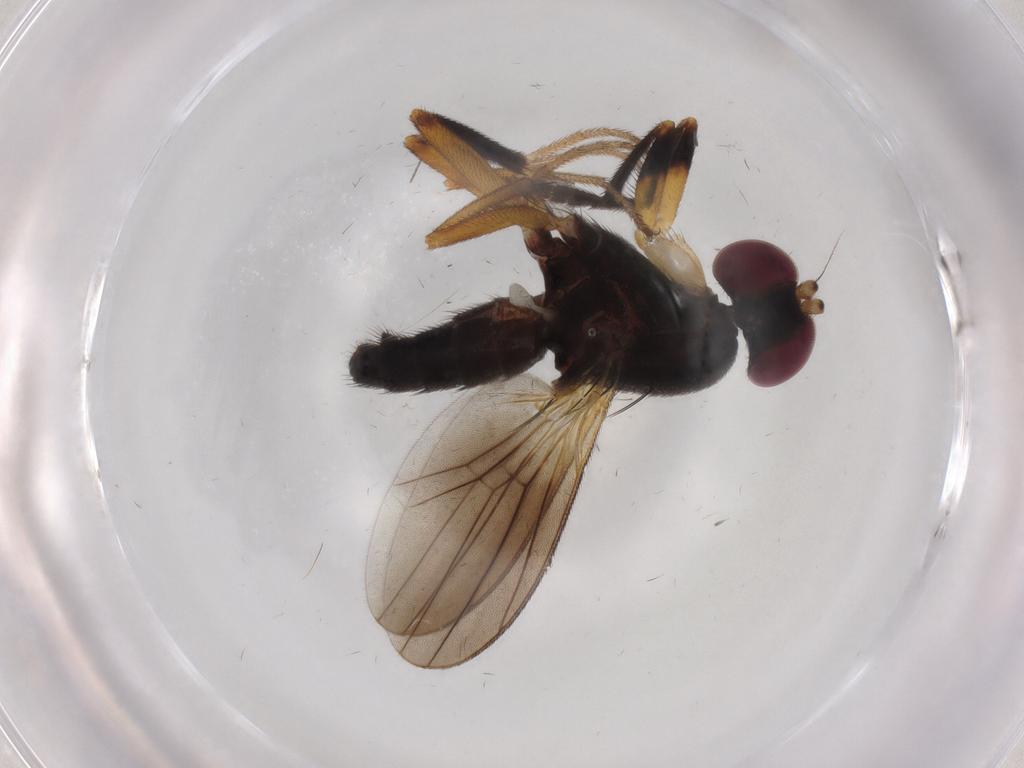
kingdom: Animalia
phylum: Arthropoda
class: Insecta
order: Diptera
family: Clusiidae
